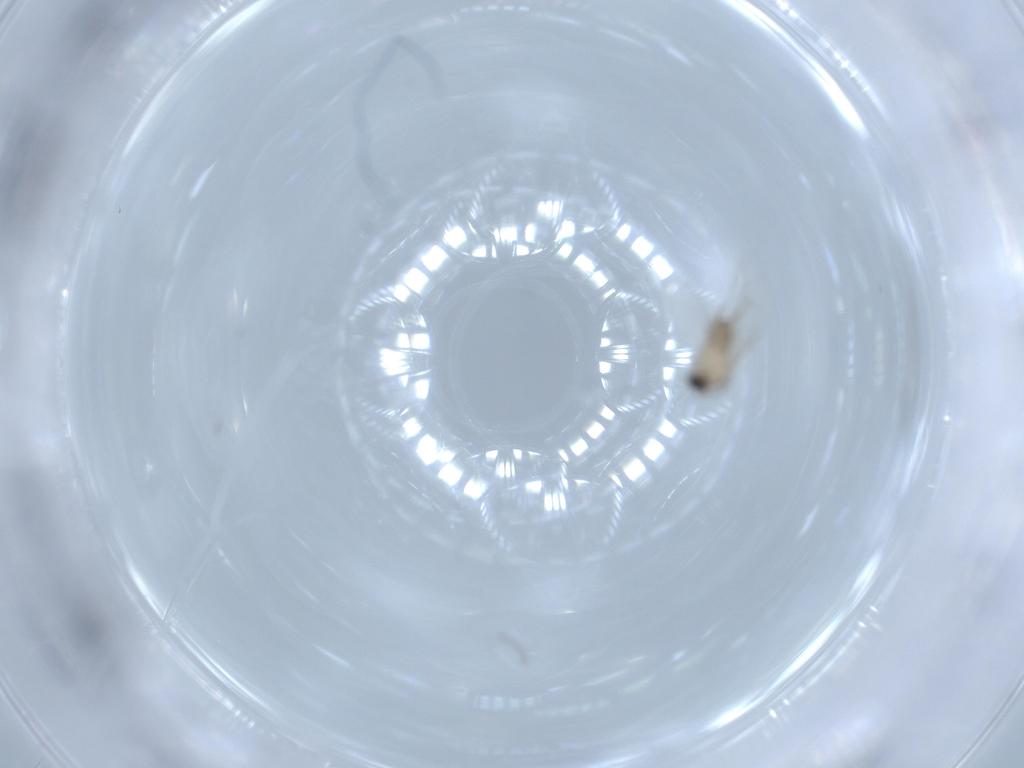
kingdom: Animalia
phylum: Arthropoda
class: Insecta
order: Diptera
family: Cecidomyiidae
